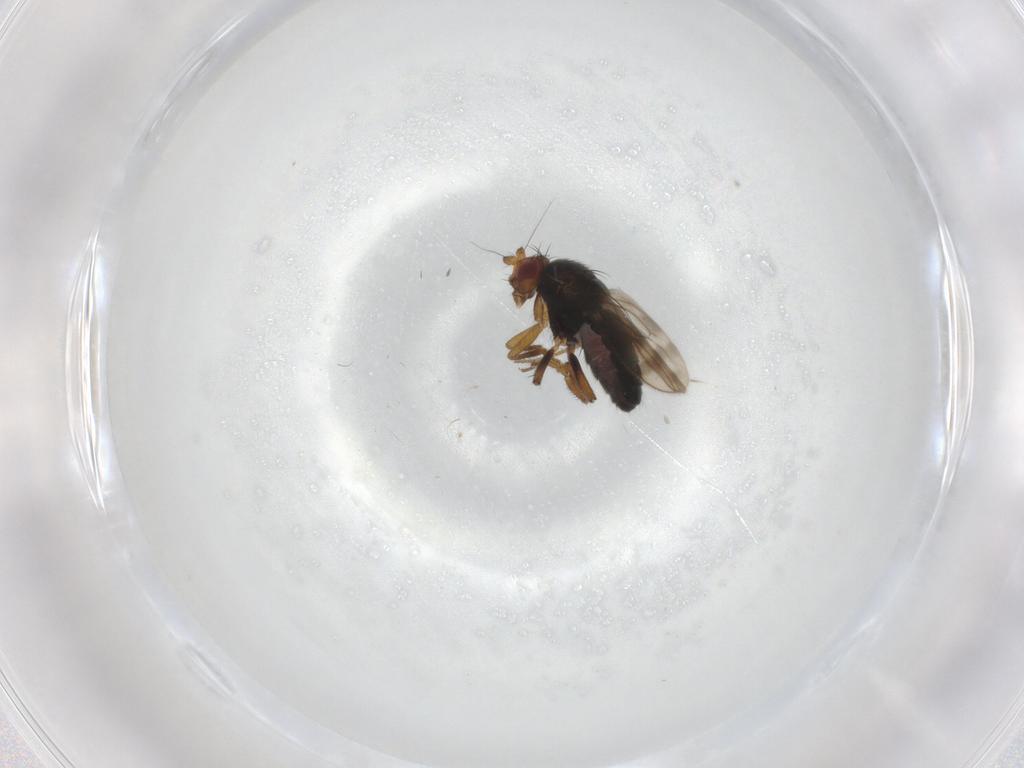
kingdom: Animalia
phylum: Arthropoda
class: Insecta
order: Diptera
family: Sphaeroceridae
